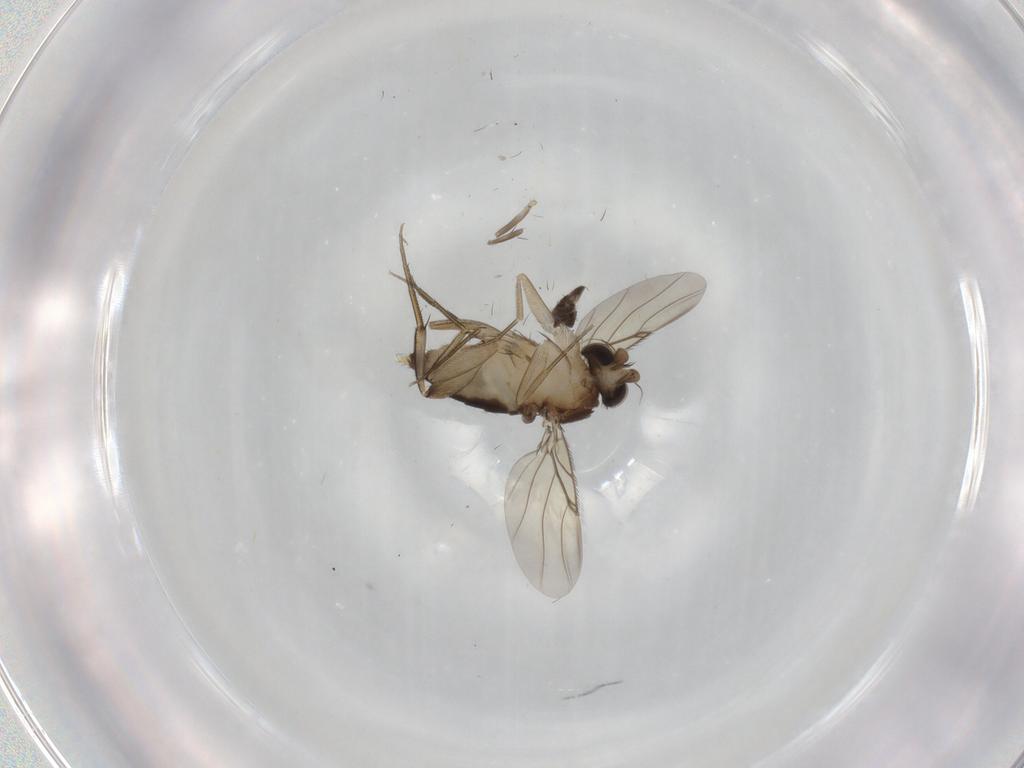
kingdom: Animalia
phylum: Arthropoda
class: Insecta
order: Diptera
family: Phoridae
